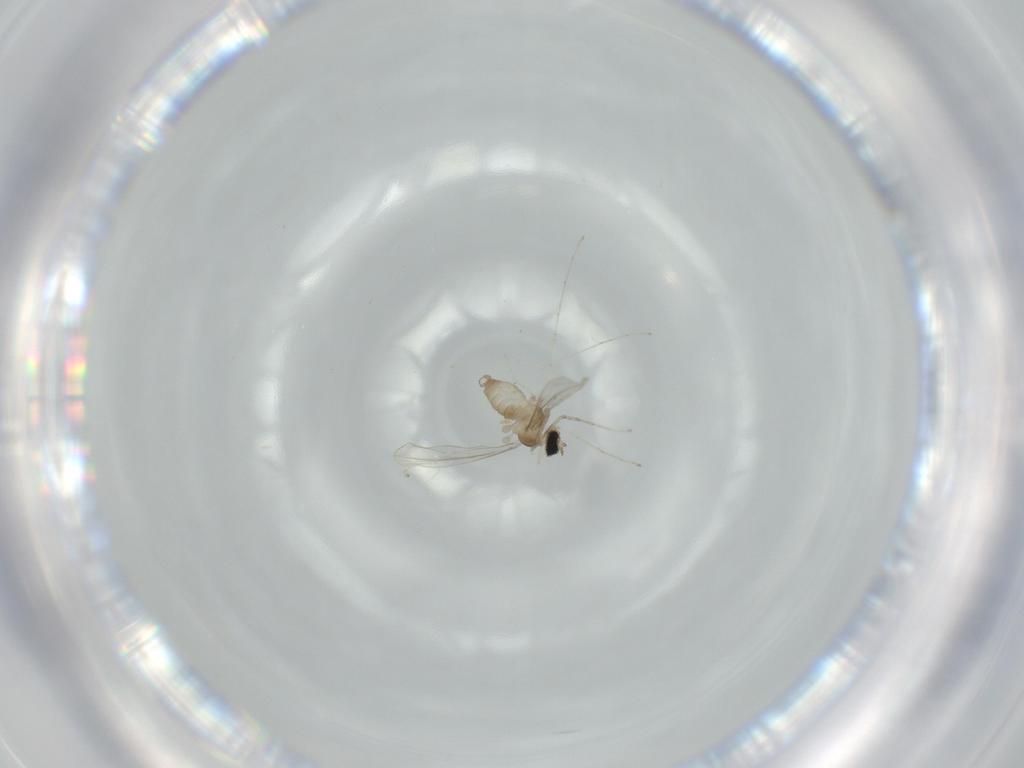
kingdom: Animalia
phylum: Arthropoda
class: Insecta
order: Diptera
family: Cecidomyiidae
